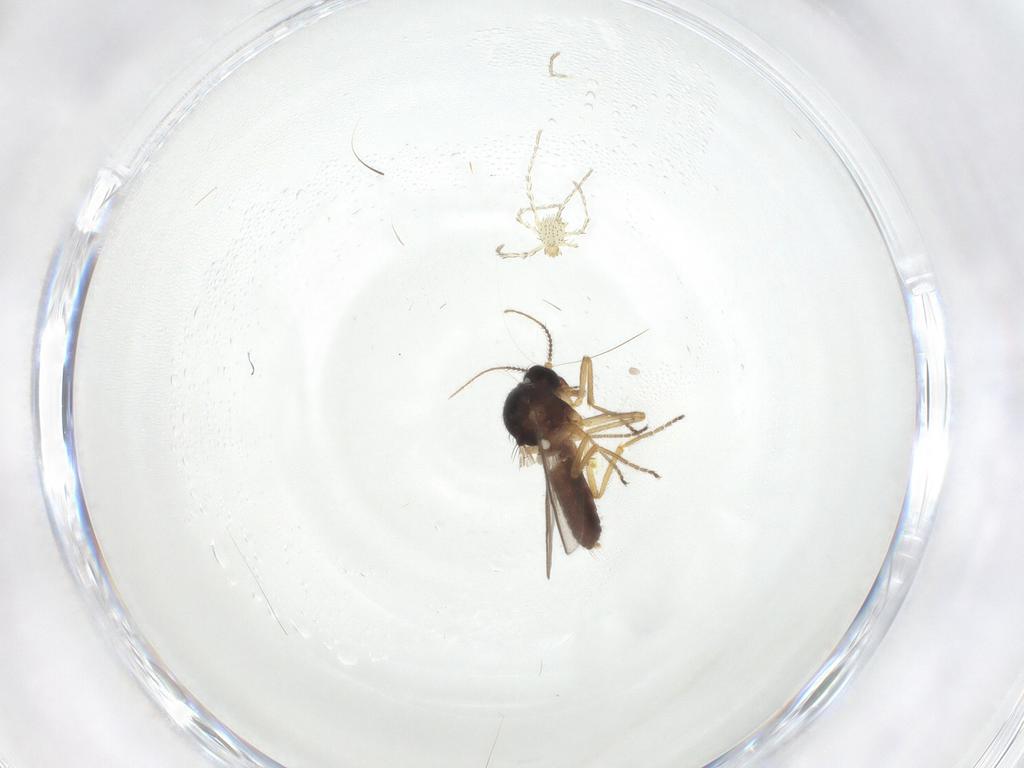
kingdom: Animalia
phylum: Arthropoda
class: Insecta
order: Diptera
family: Ceratopogonidae
